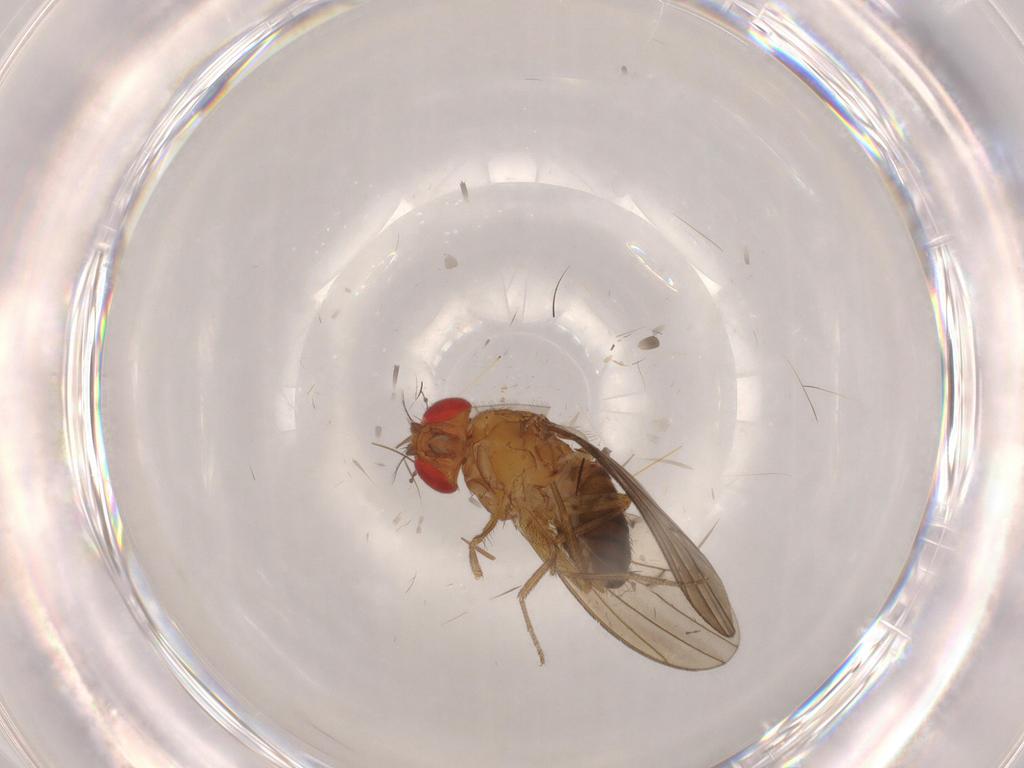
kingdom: Animalia
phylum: Arthropoda
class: Insecta
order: Diptera
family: Drosophilidae
